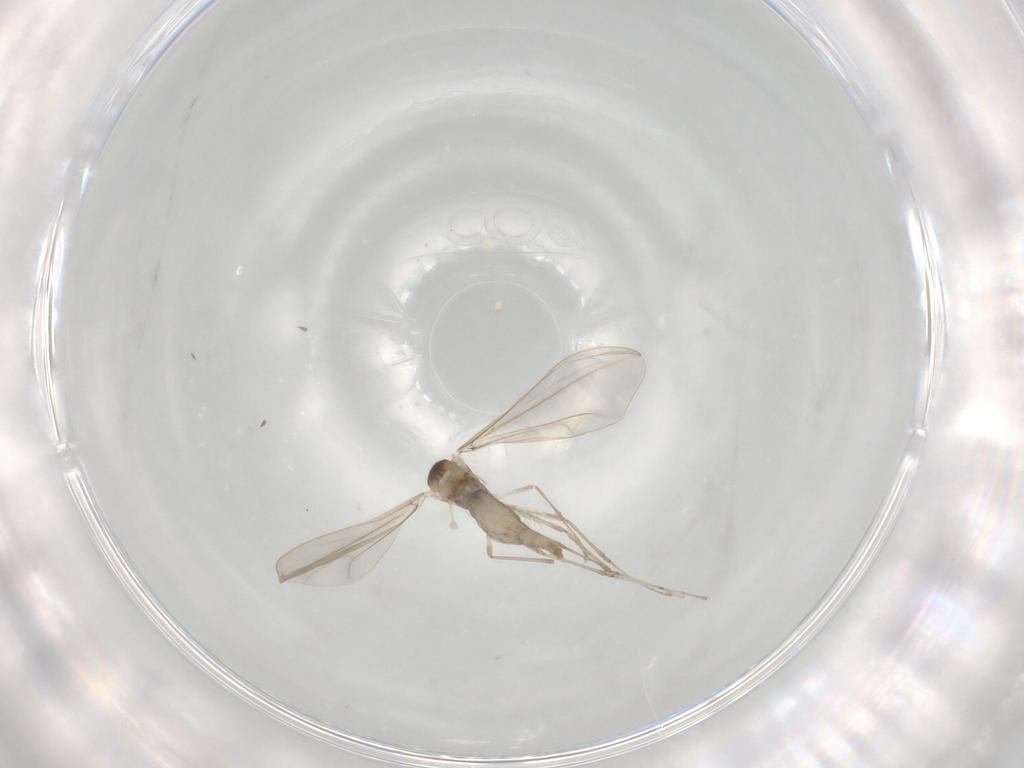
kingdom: Animalia
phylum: Arthropoda
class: Insecta
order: Diptera
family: Cecidomyiidae
